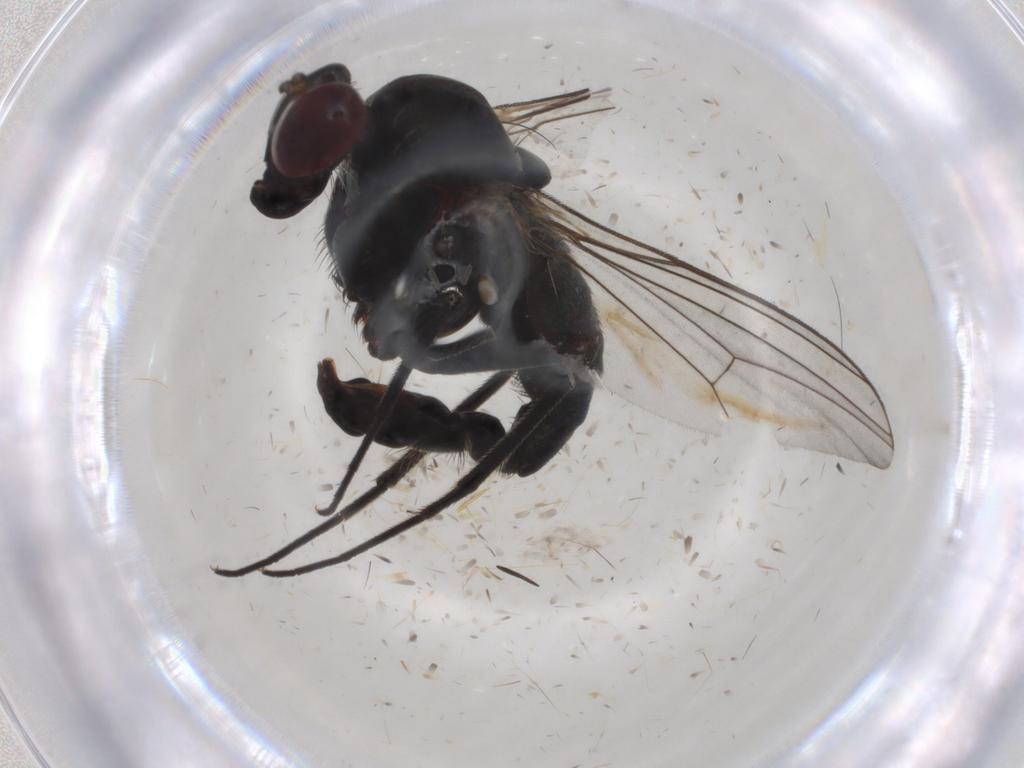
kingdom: Animalia
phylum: Arthropoda
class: Insecta
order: Diptera
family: Dolichopodidae
